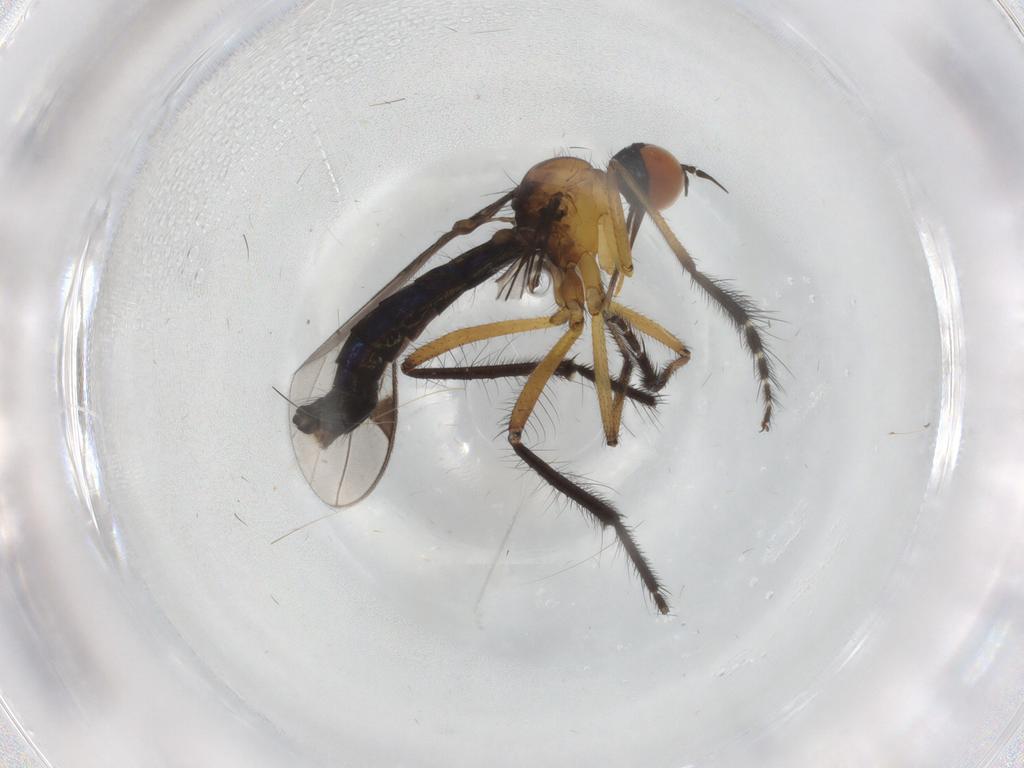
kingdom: Animalia
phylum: Arthropoda
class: Insecta
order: Diptera
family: Empididae
